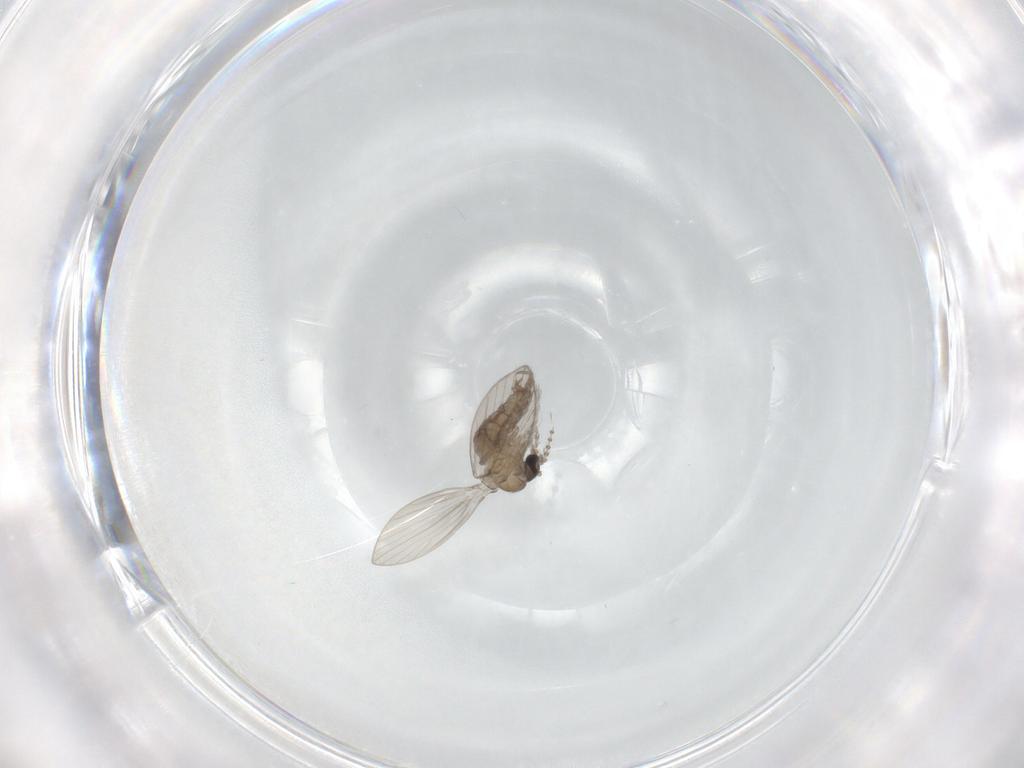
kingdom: Animalia
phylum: Arthropoda
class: Insecta
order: Diptera
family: Psychodidae
